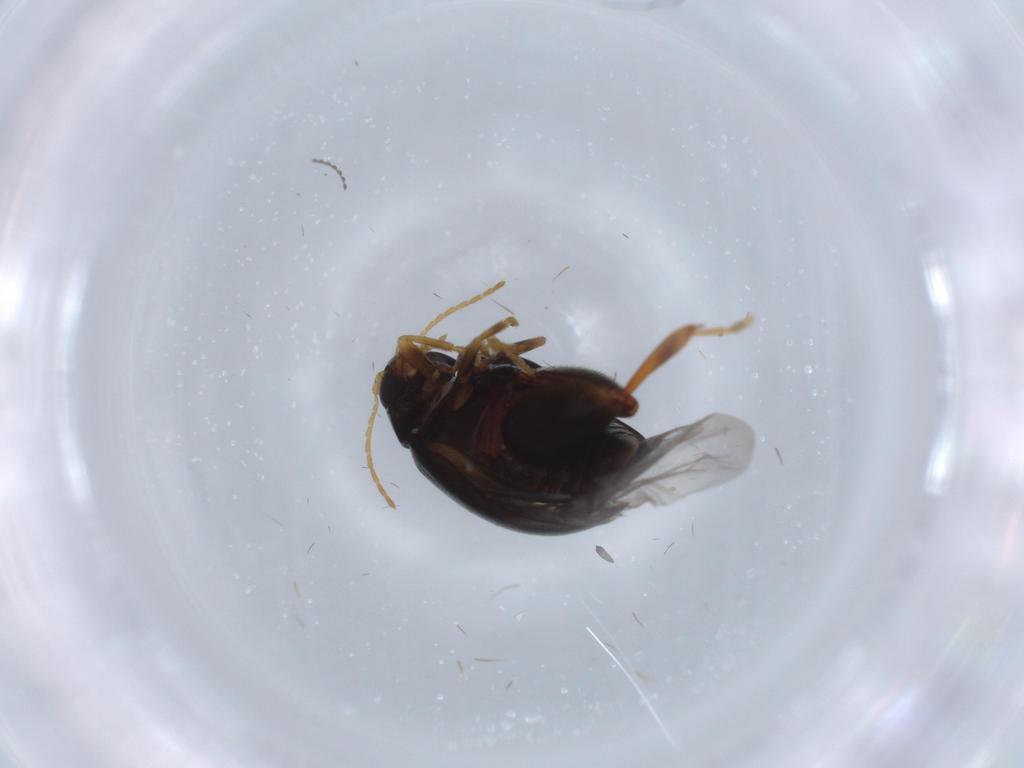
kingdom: Animalia
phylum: Arthropoda
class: Insecta
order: Coleoptera
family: Chrysomelidae
